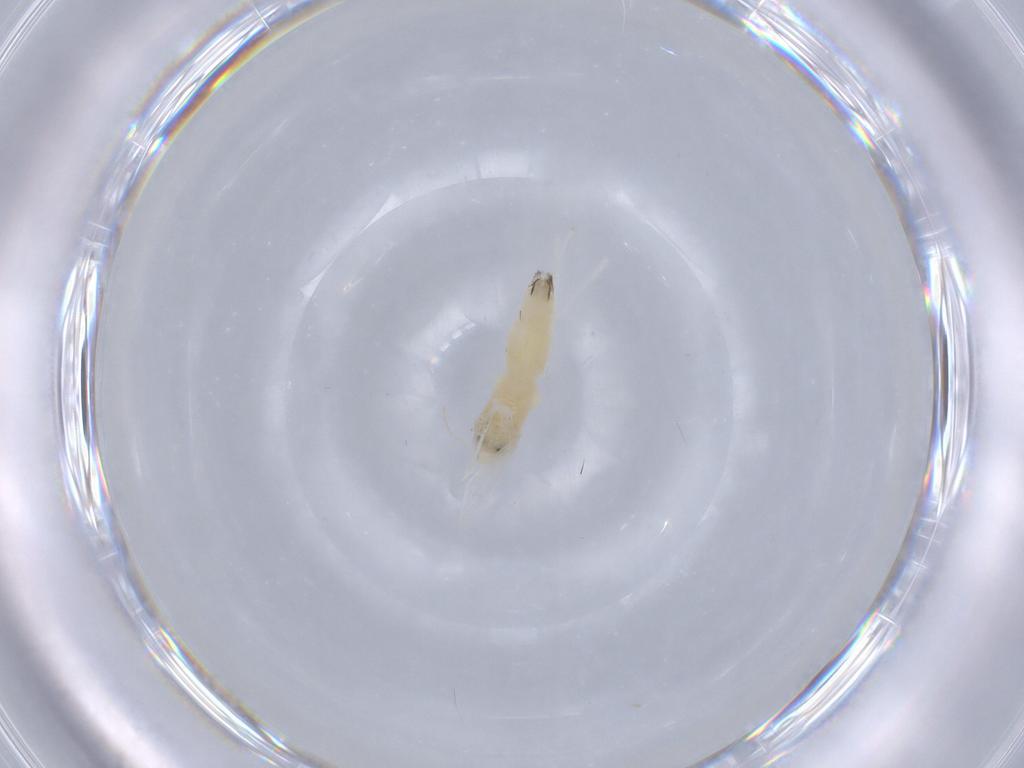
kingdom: Animalia
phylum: Arthropoda
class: Insecta
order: Lepidoptera
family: Gracillariidae
